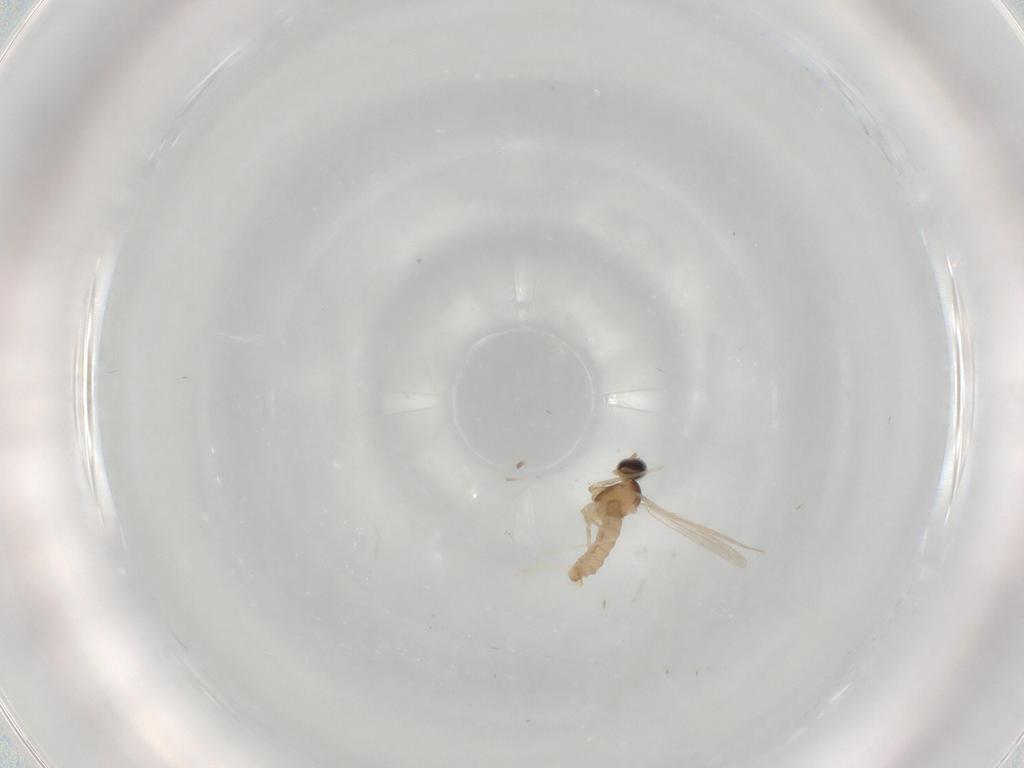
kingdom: Animalia
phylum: Arthropoda
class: Insecta
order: Diptera
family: Cecidomyiidae
